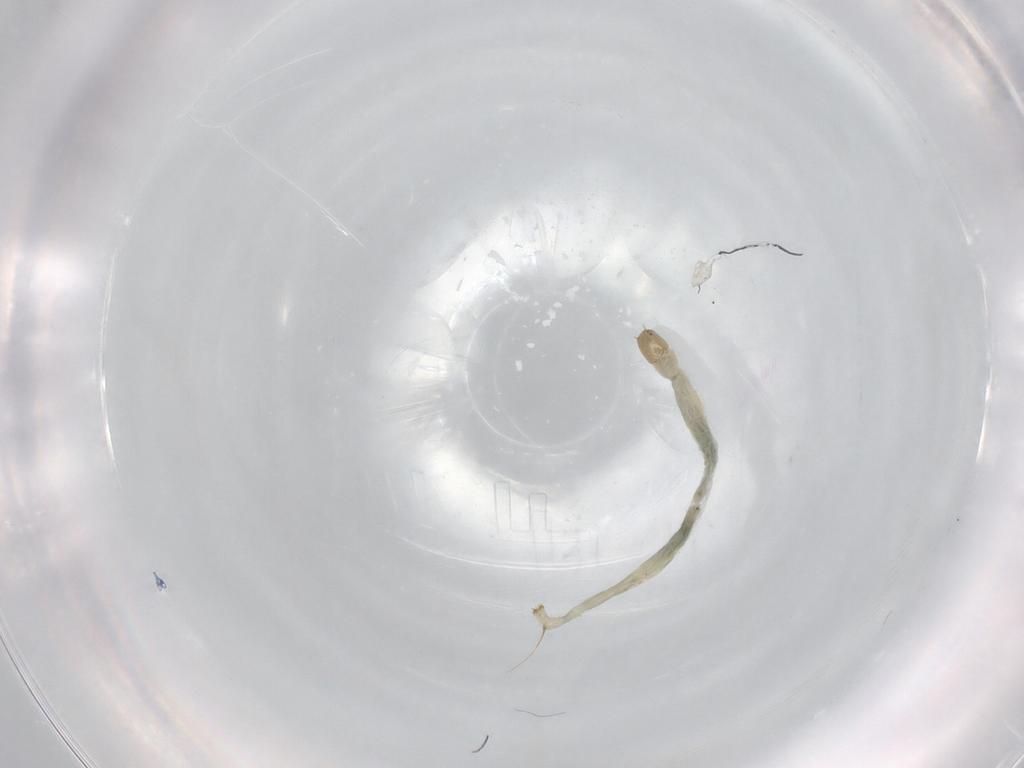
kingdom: Animalia
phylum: Arthropoda
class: Insecta
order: Diptera
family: Chironomidae
